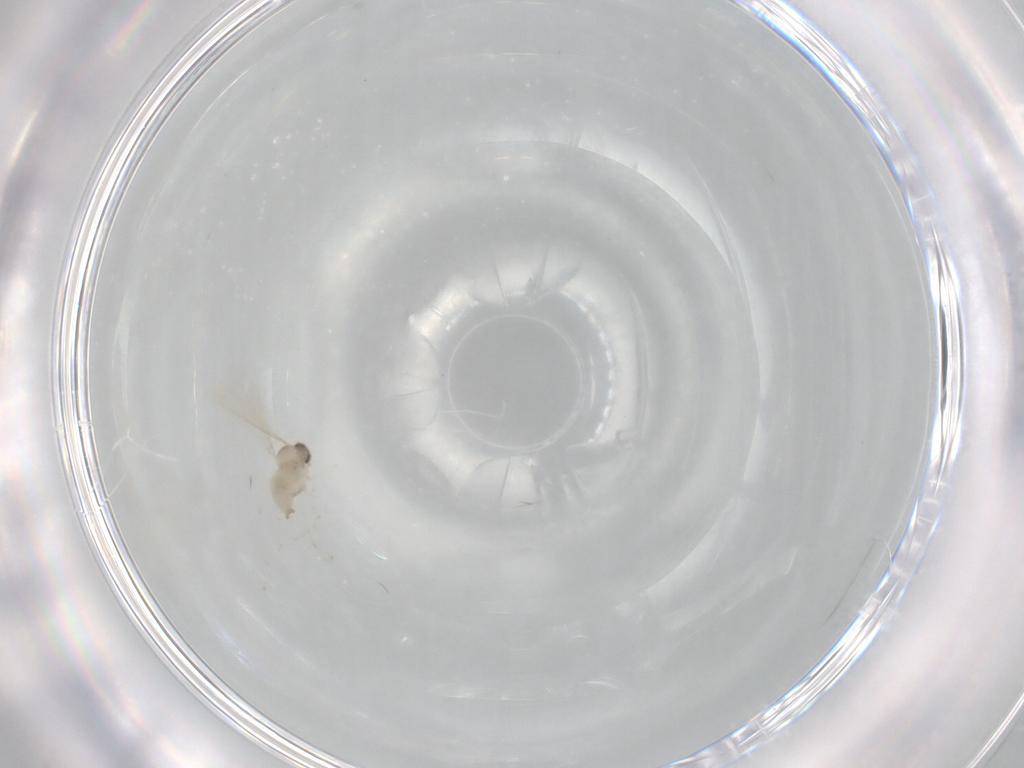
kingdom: Animalia
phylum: Arthropoda
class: Insecta
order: Diptera
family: Cecidomyiidae
